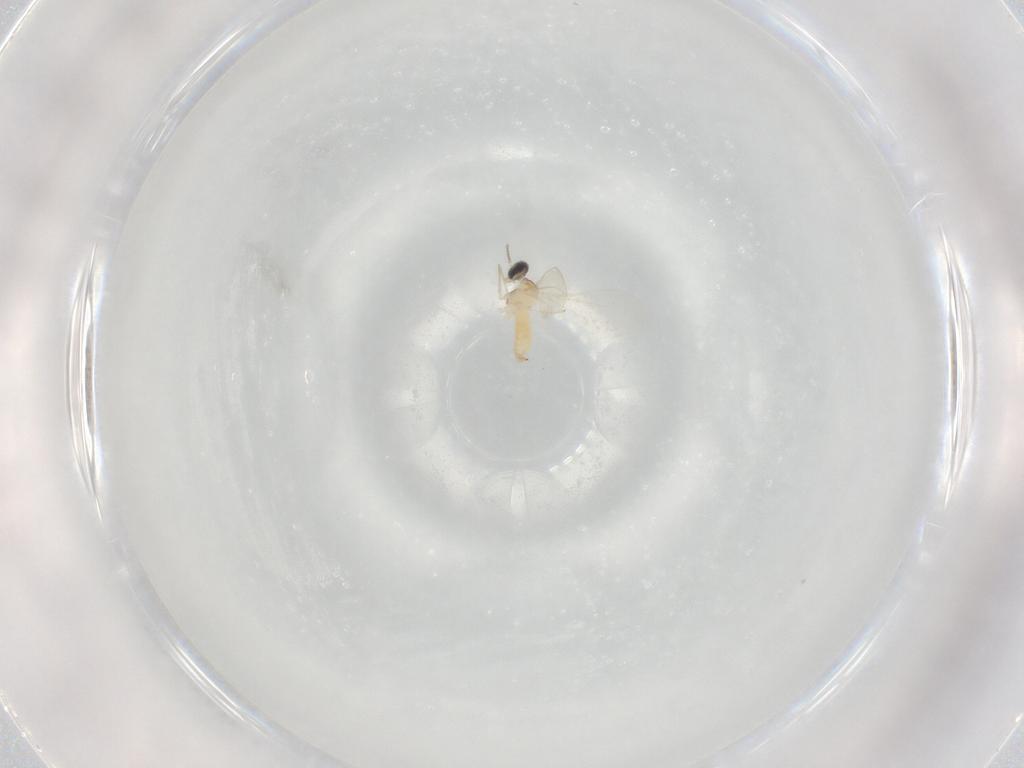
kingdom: Animalia
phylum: Arthropoda
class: Insecta
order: Diptera
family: Cecidomyiidae
